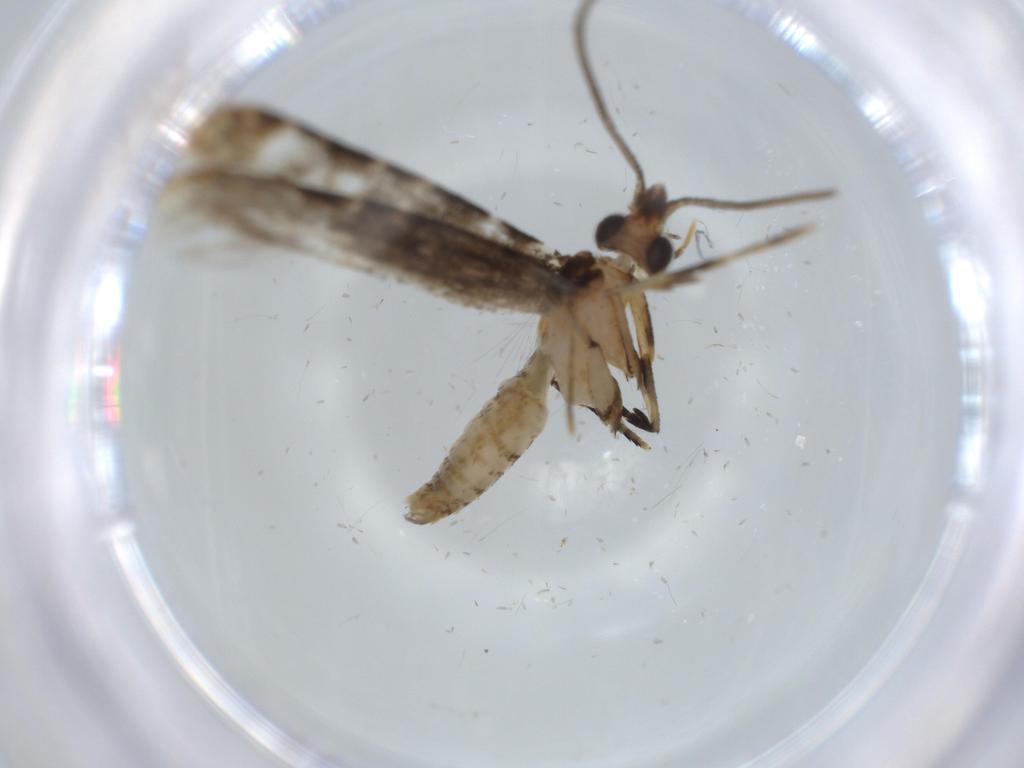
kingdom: Animalia
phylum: Arthropoda
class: Insecta
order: Lepidoptera
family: Tineidae
